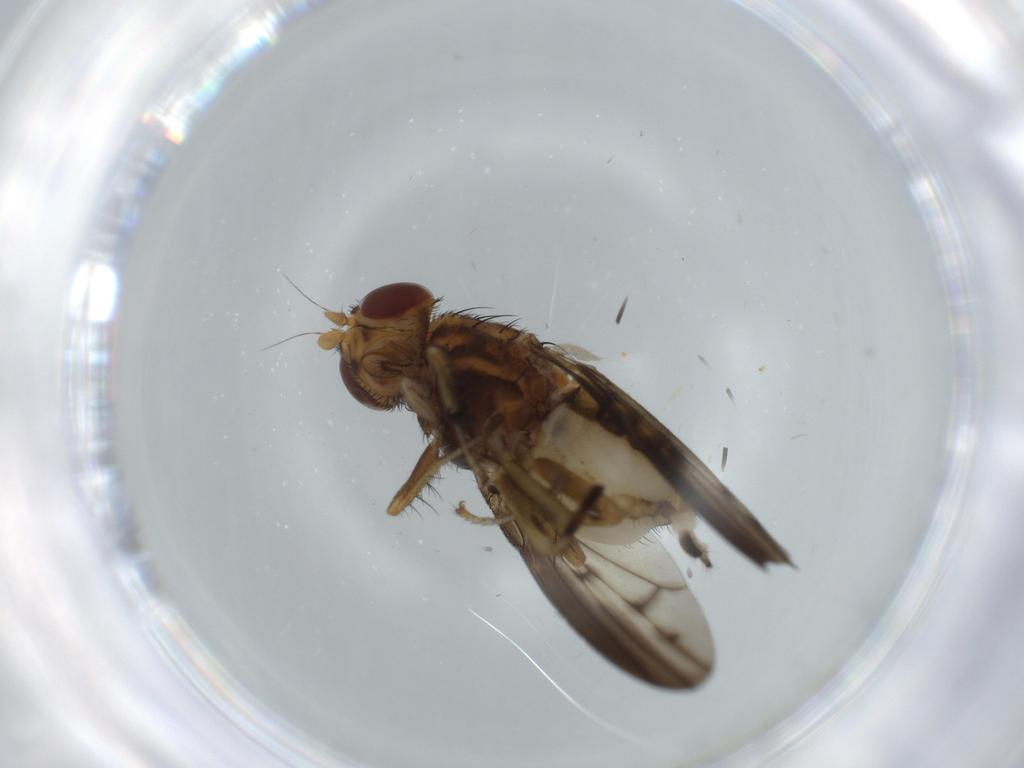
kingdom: Animalia
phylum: Arthropoda
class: Insecta
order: Diptera
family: Lauxaniidae
